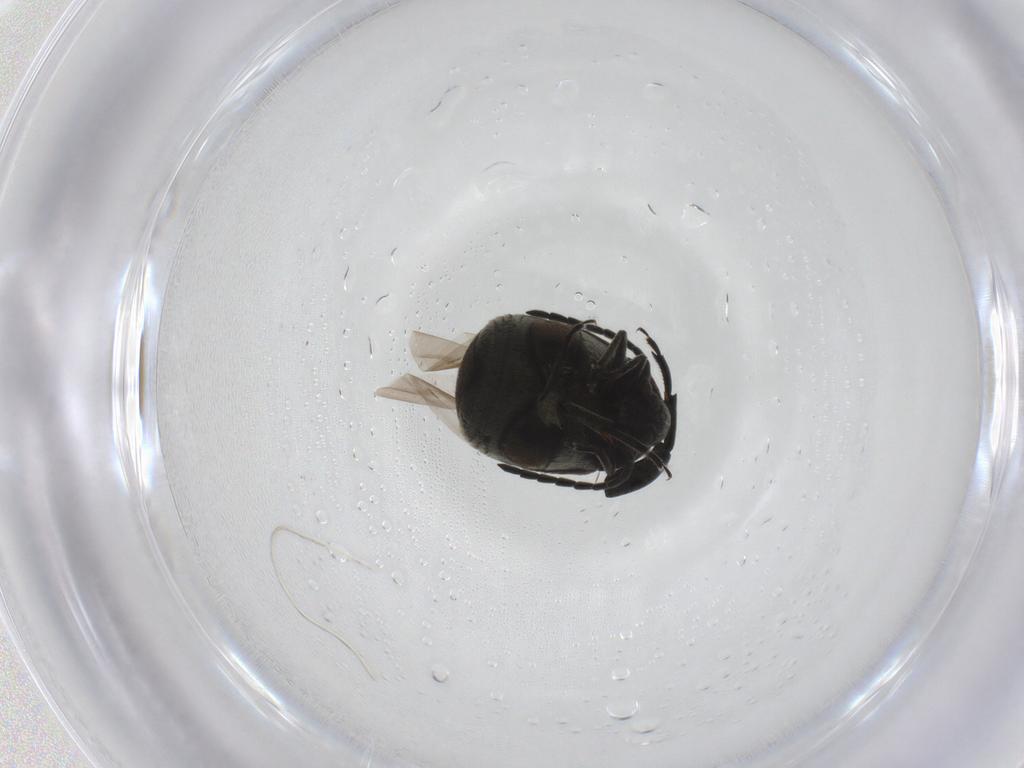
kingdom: Animalia
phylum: Arthropoda
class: Insecta
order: Coleoptera
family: Chrysomelidae
